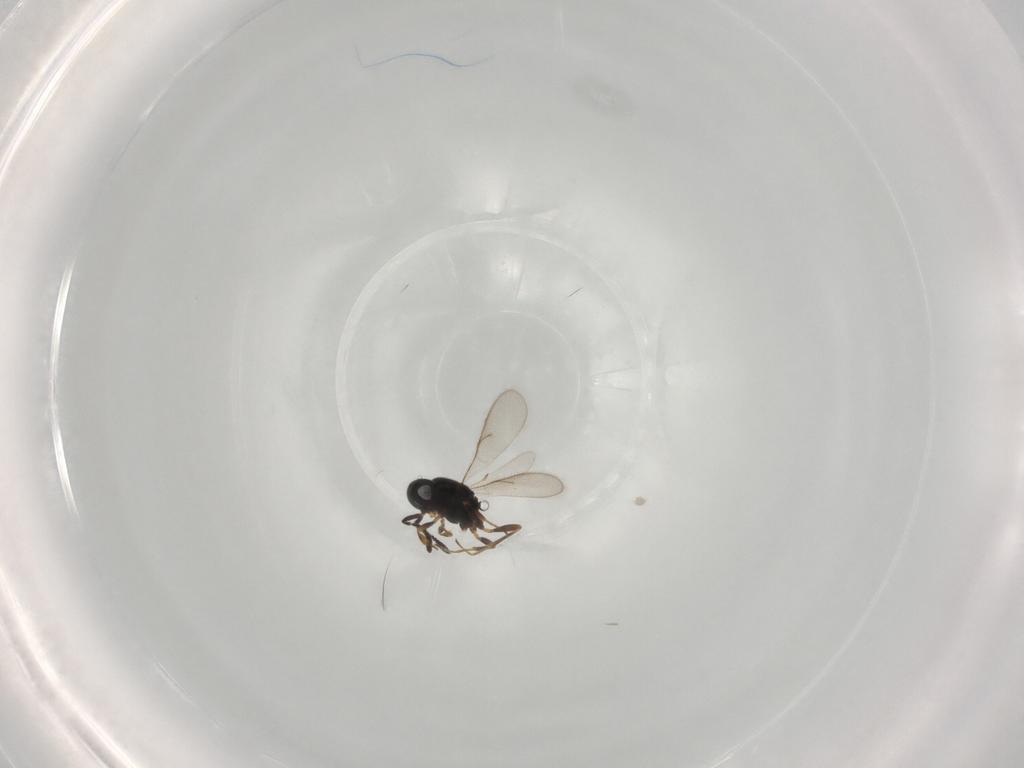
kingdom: Animalia
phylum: Arthropoda
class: Insecta
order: Hymenoptera
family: Scelionidae
